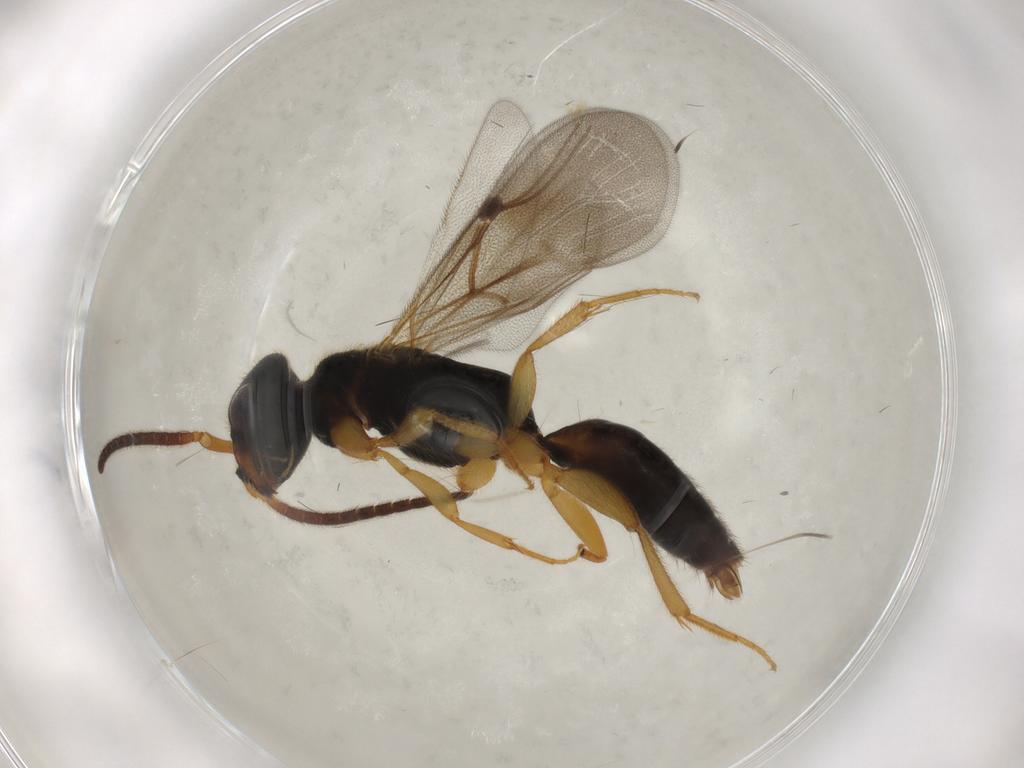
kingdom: Animalia
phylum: Arthropoda
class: Insecta
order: Hymenoptera
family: Bethylidae
